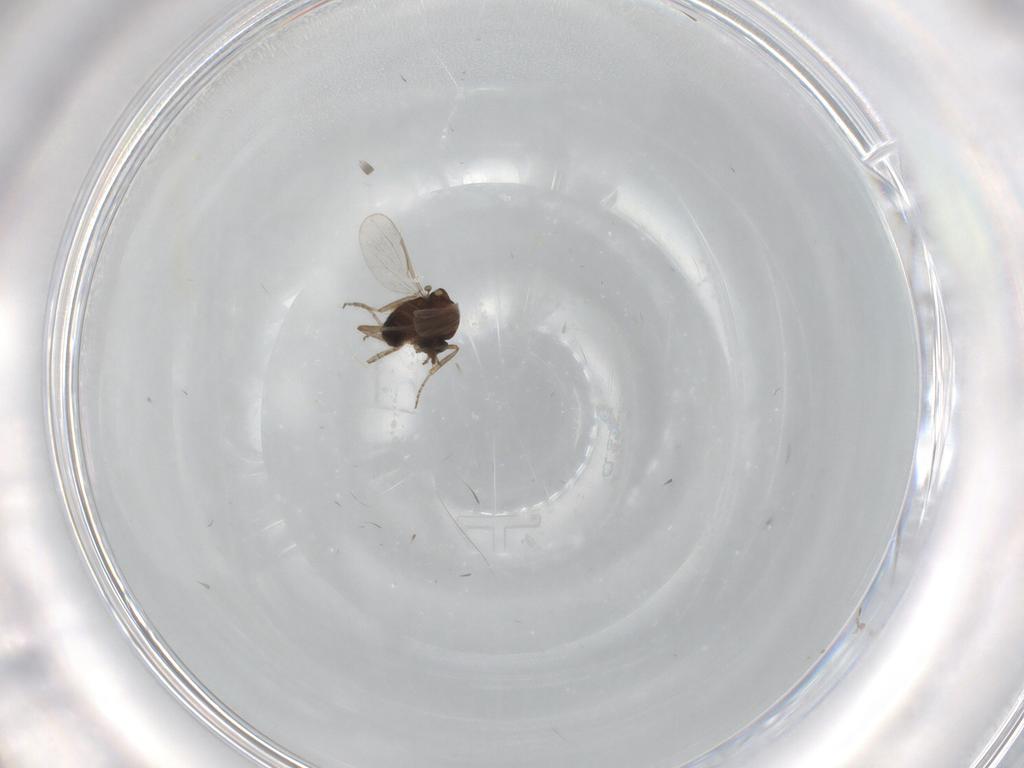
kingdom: Animalia
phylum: Arthropoda
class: Insecta
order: Diptera
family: Ceratopogonidae
